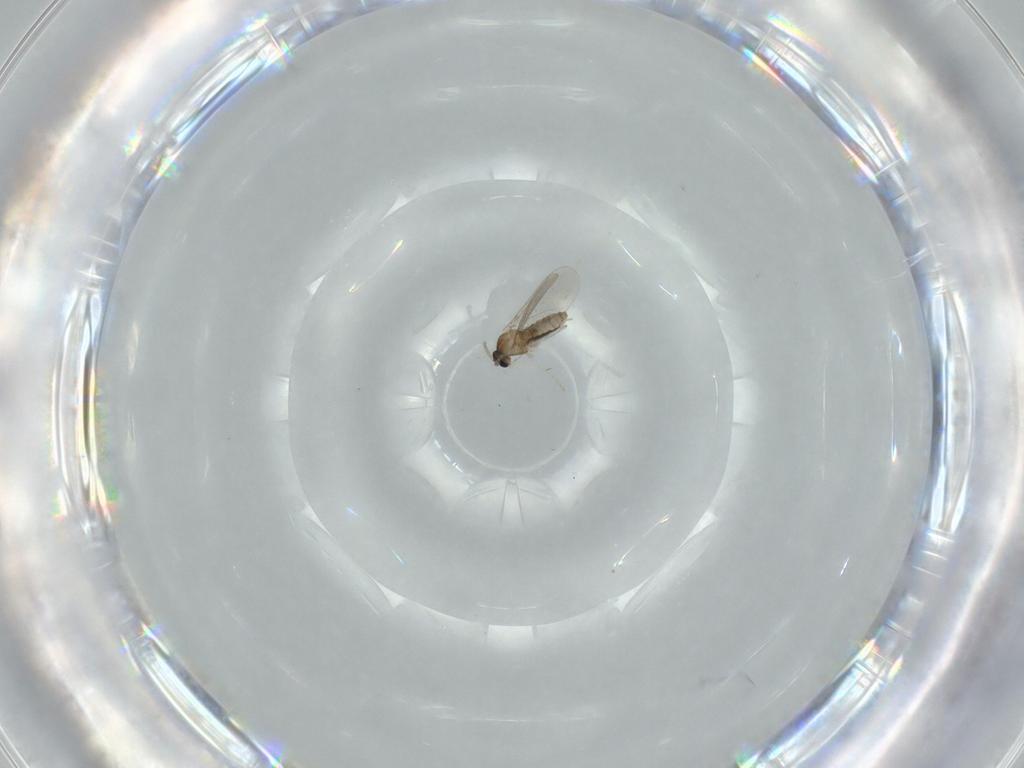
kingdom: Animalia
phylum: Arthropoda
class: Insecta
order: Diptera
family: Cecidomyiidae
